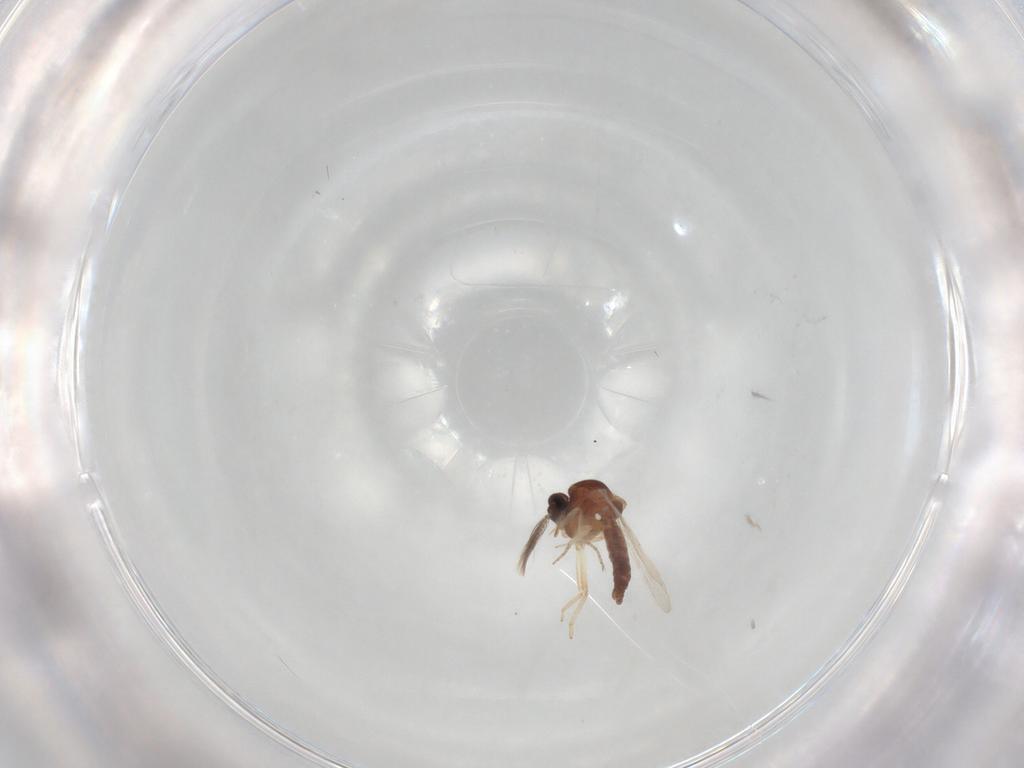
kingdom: Animalia
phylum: Arthropoda
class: Insecta
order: Diptera
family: Ceratopogonidae
